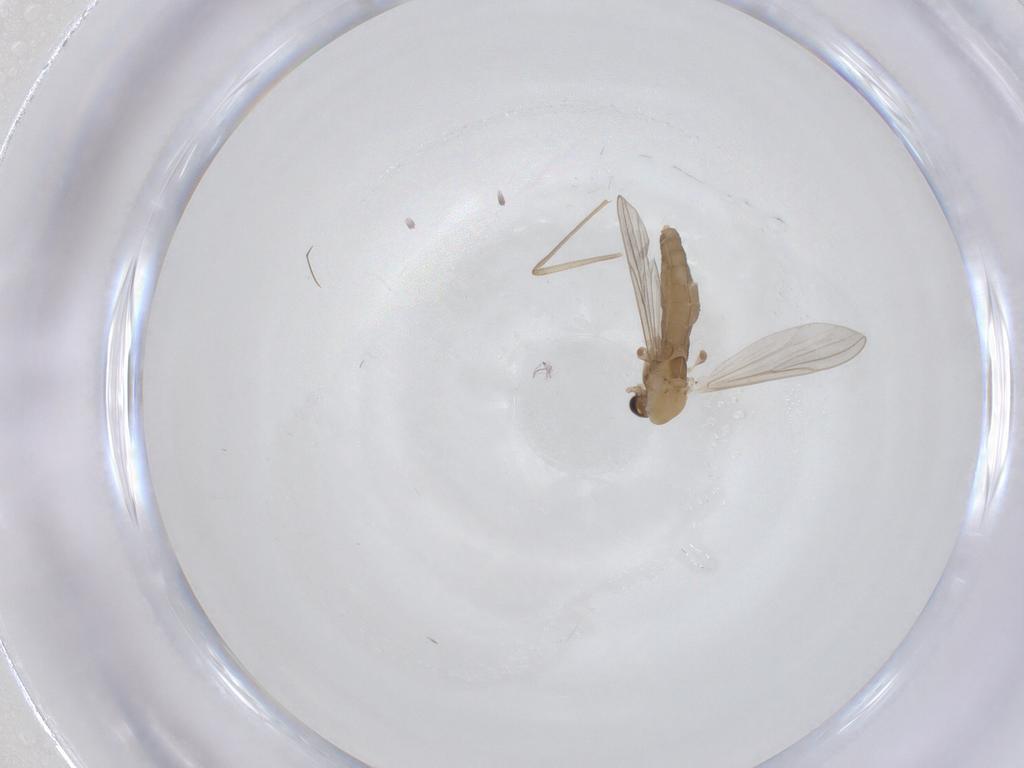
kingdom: Animalia
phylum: Arthropoda
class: Insecta
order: Diptera
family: Chironomidae
